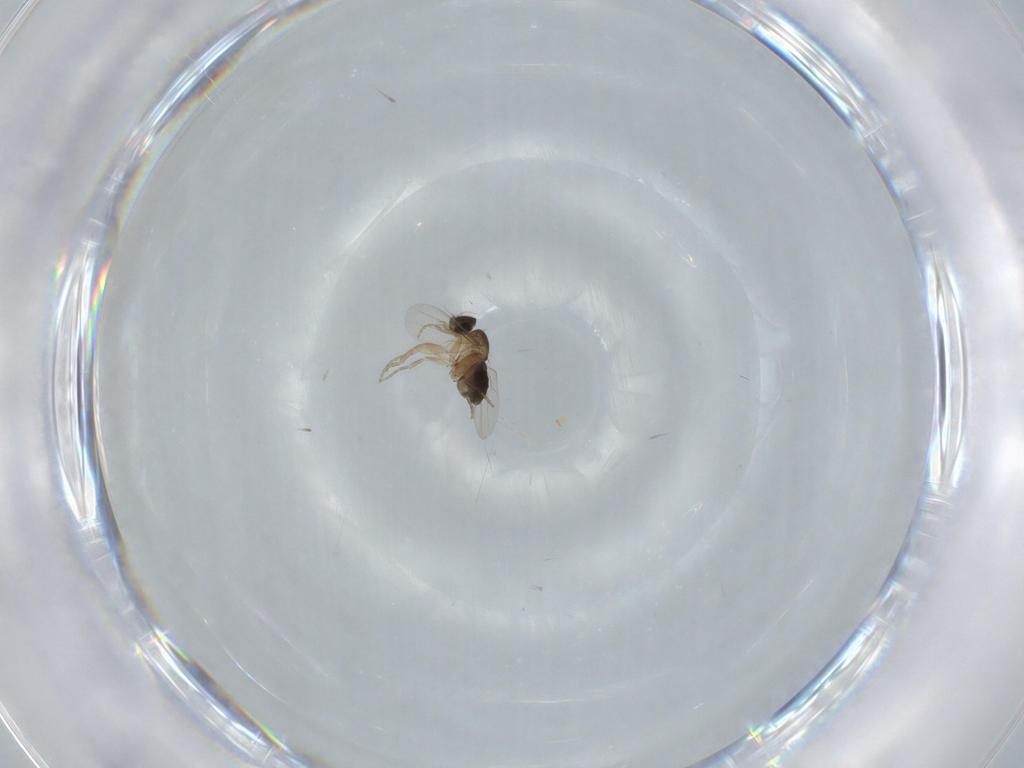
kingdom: Animalia
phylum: Arthropoda
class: Insecta
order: Diptera
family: Phoridae
